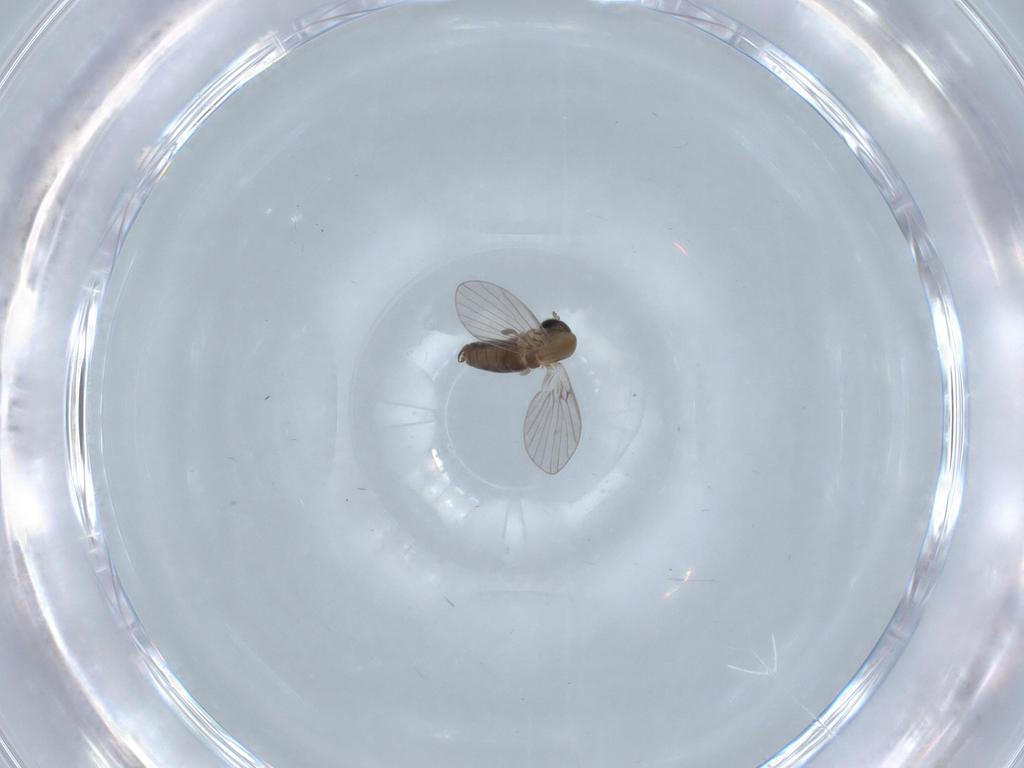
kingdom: Animalia
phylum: Arthropoda
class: Insecta
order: Diptera
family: Psychodidae
